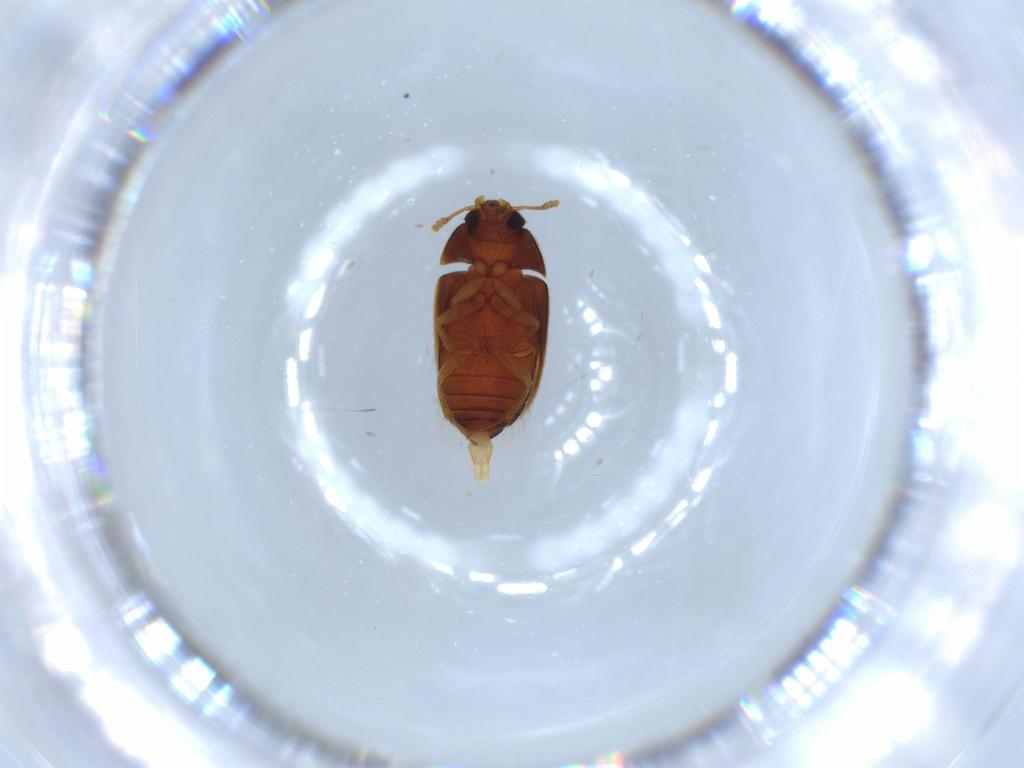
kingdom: Animalia
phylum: Arthropoda
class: Insecta
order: Coleoptera
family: Mycetophagidae
